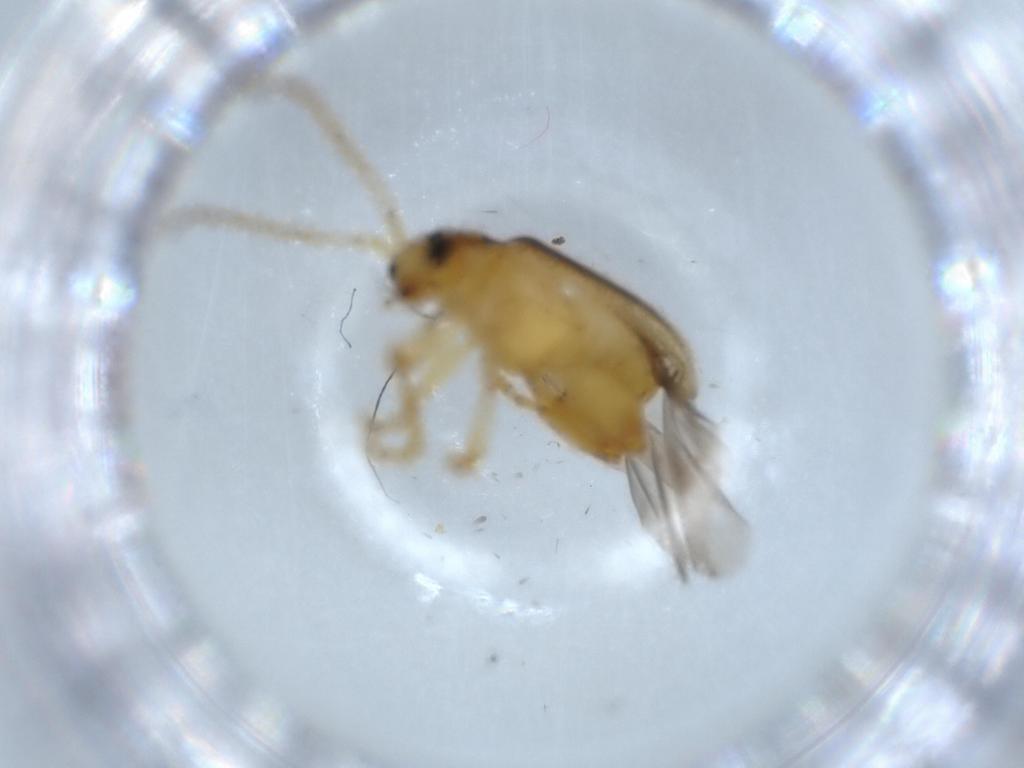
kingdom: Animalia
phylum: Arthropoda
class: Insecta
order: Coleoptera
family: Chrysomelidae
